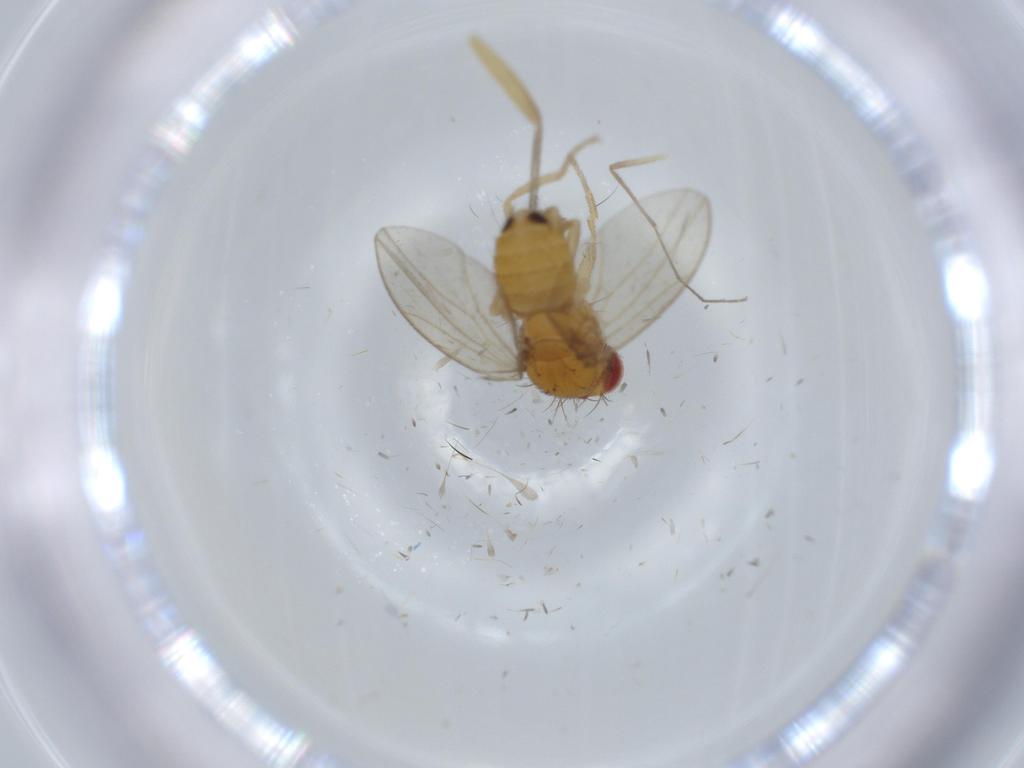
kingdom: Animalia
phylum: Arthropoda
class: Insecta
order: Diptera
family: Drosophilidae
